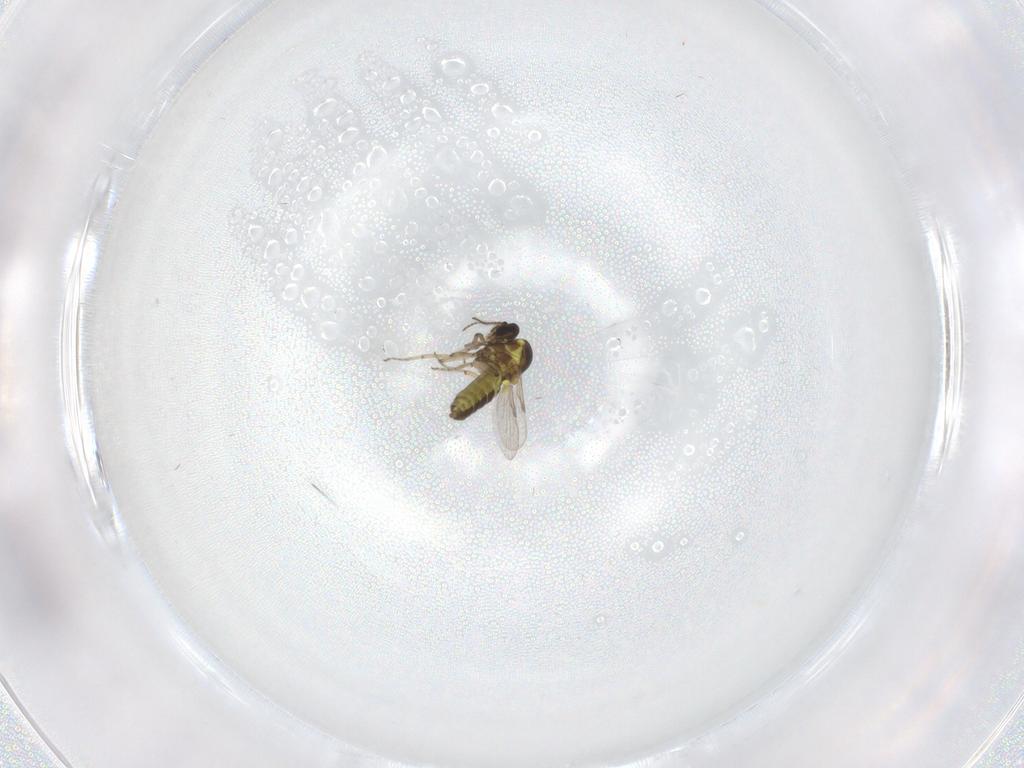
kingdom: Animalia
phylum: Arthropoda
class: Insecta
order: Diptera
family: Ceratopogonidae
